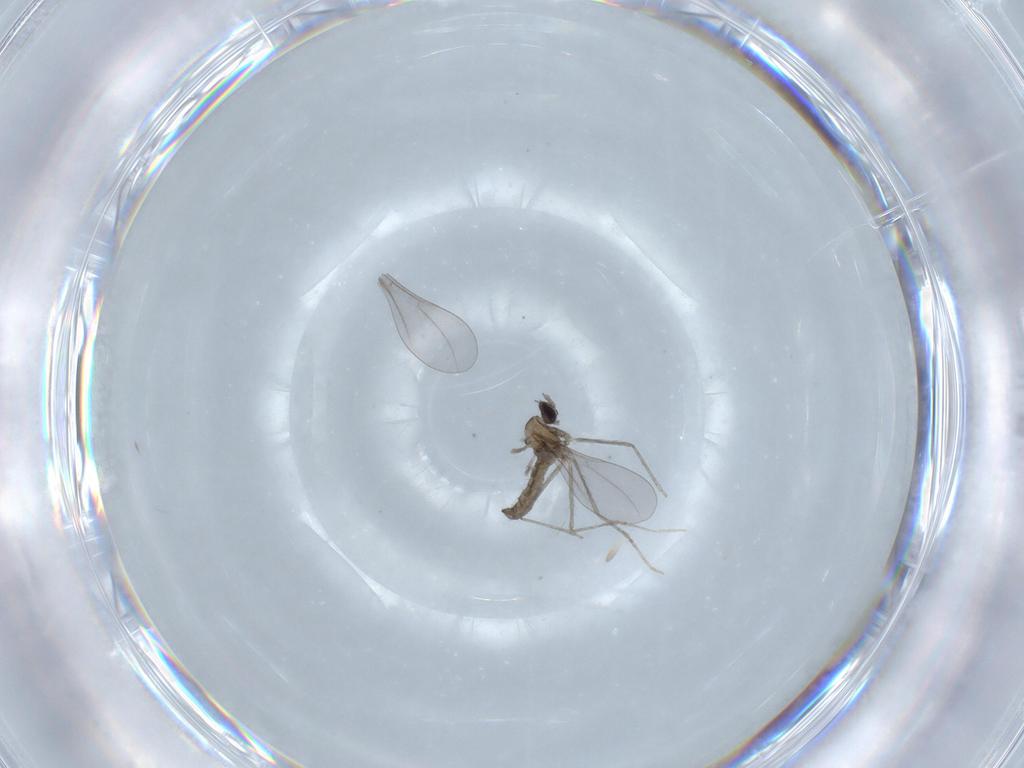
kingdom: Animalia
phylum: Arthropoda
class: Insecta
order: Diptera
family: Cecidomyiidae
